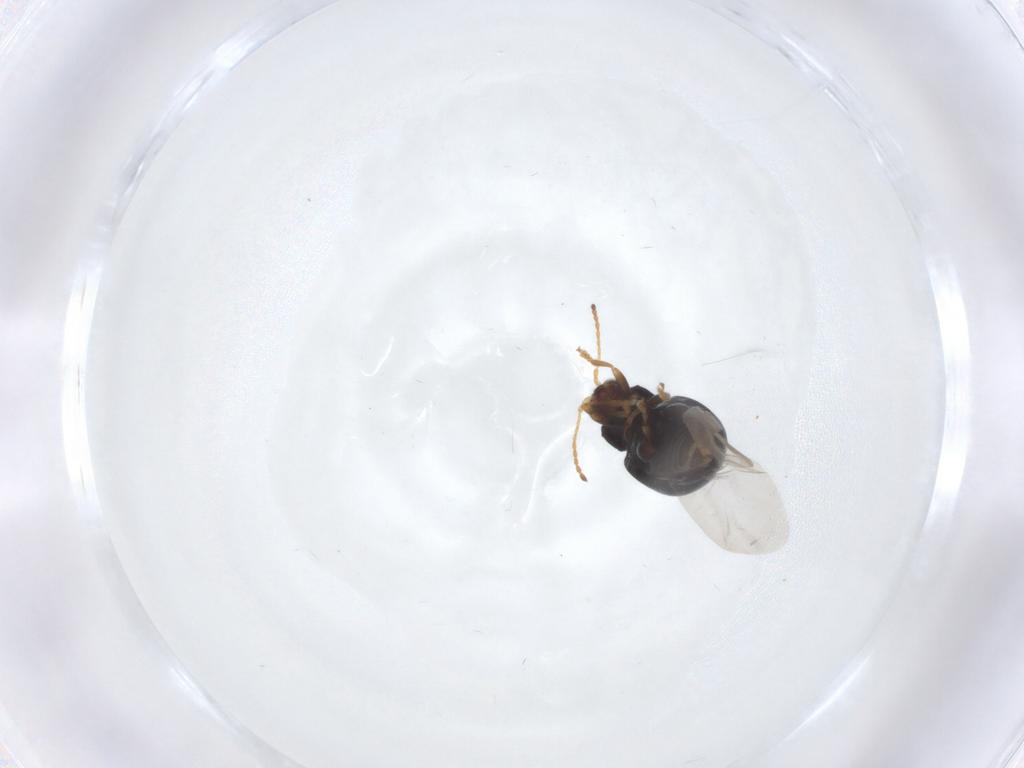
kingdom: Animalia
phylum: Arthropoda
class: Insecta
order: Coleoptera
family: Chrysomelidae
